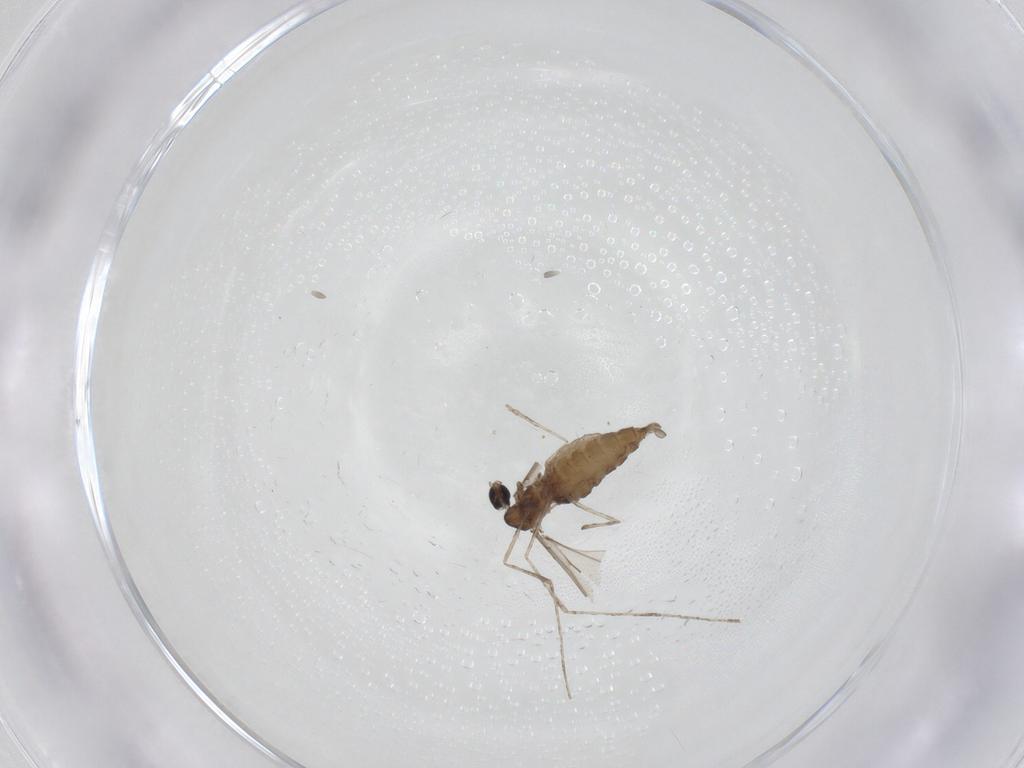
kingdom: Animalia
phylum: Arthropoda
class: Insecta
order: Diptera
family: Cecidomyiidae
